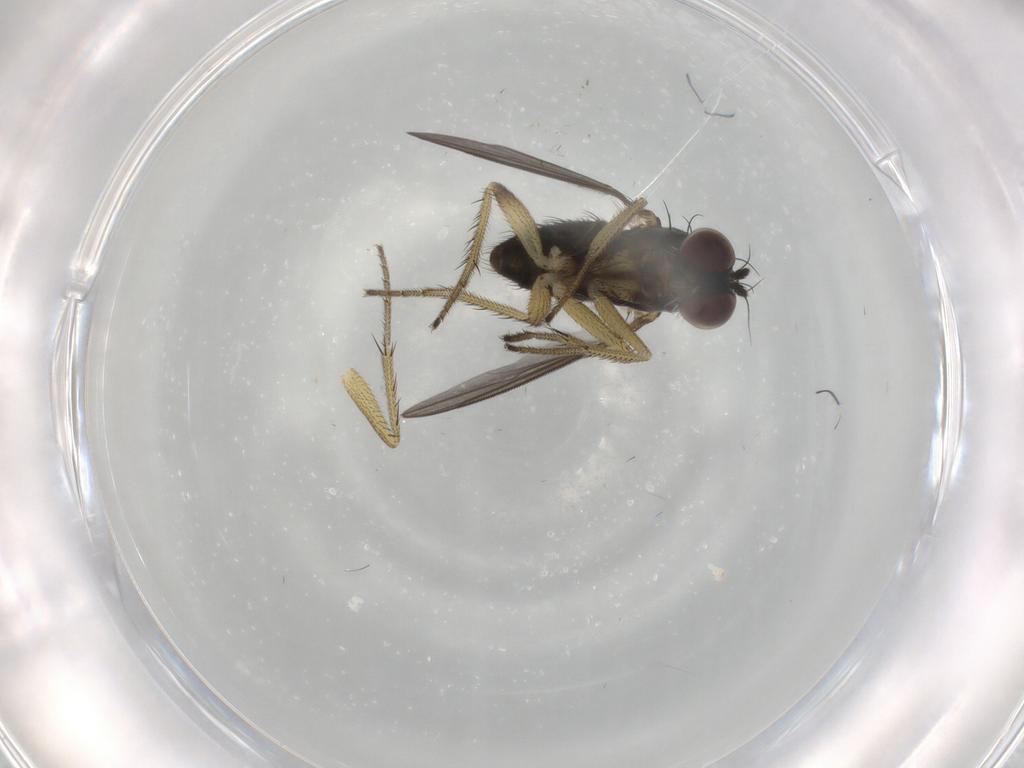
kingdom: Animalia
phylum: Arthropoda
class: Insecta
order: Diptera
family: Dolichopodidae
